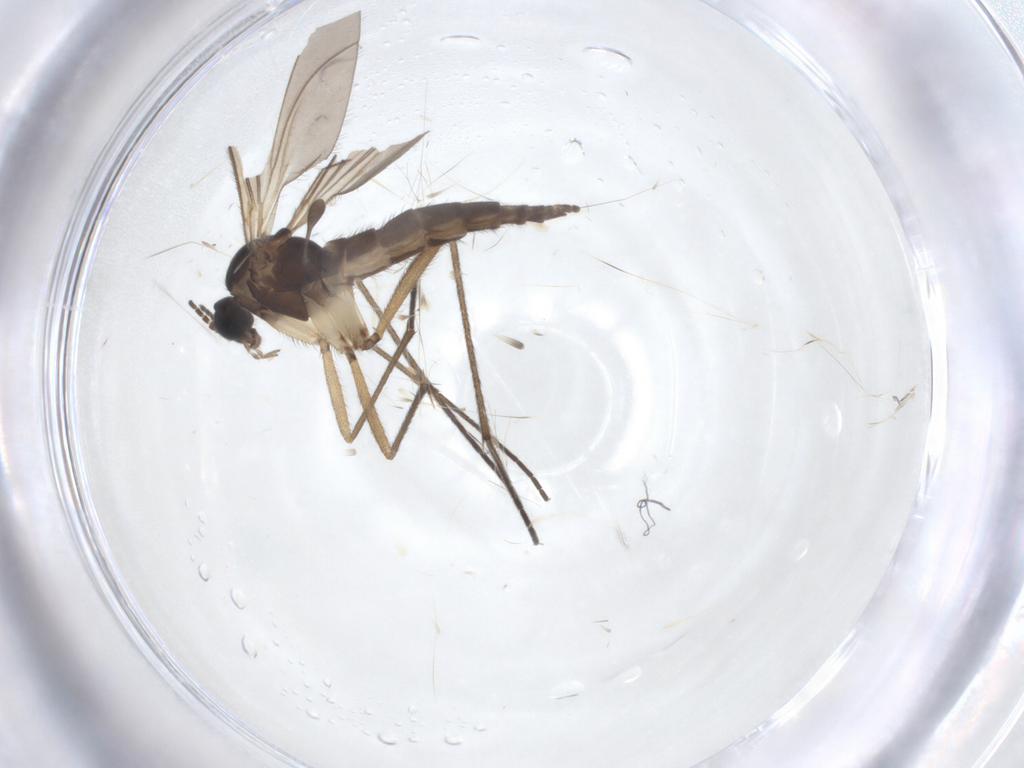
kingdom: Animalia
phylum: Arthropoda
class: Insecta
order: Diptera
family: Sciaridae
